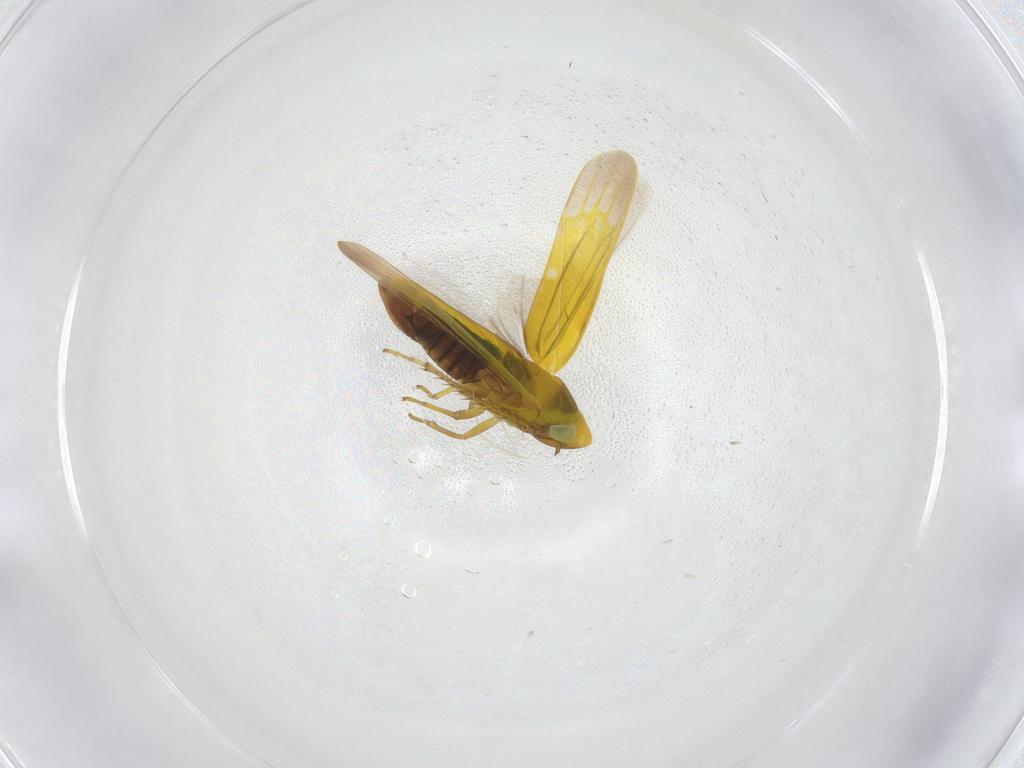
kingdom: Animalia
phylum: Arthropoda
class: Insecta
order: Hemiptera
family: Cicadellidae
